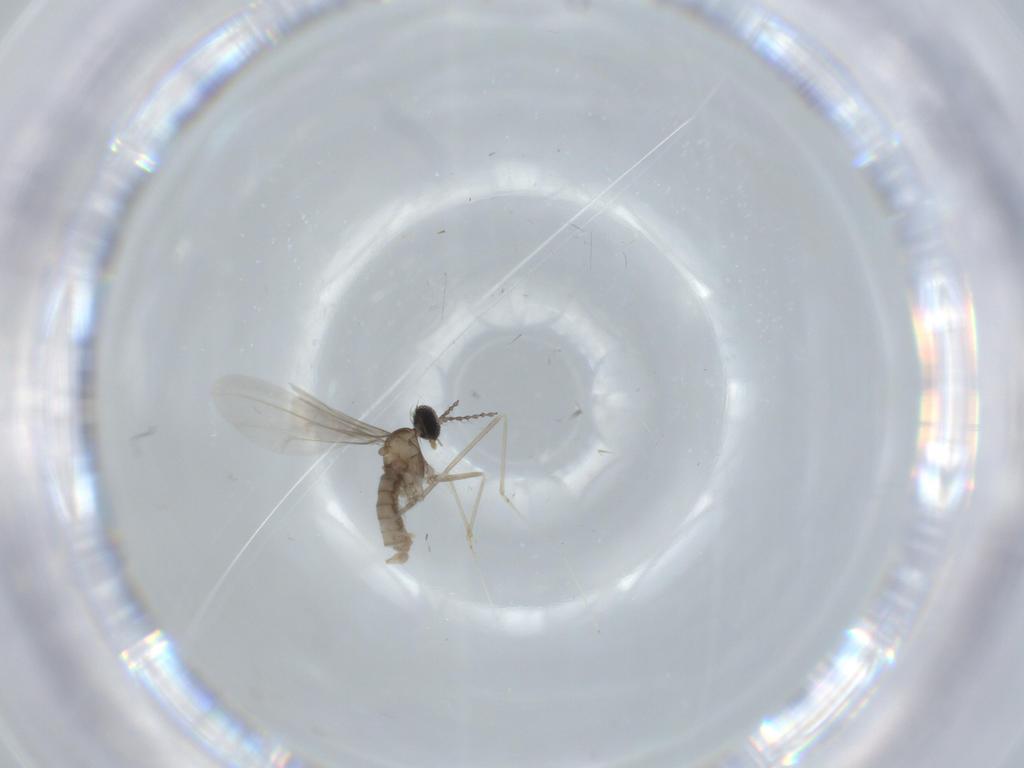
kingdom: Animalia
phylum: Arthropoda
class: Insecta
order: Diptera
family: Cecidomyiidae
